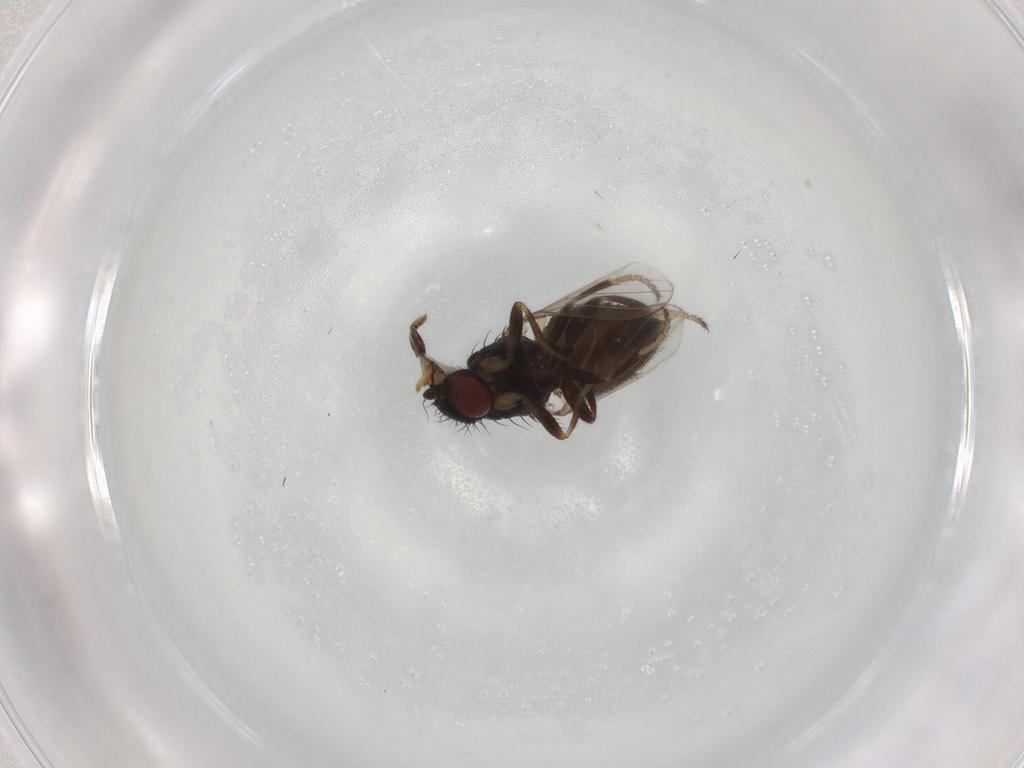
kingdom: Animalia
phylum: Arthropoda
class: Insecta
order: Diptera
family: Milichiidae
